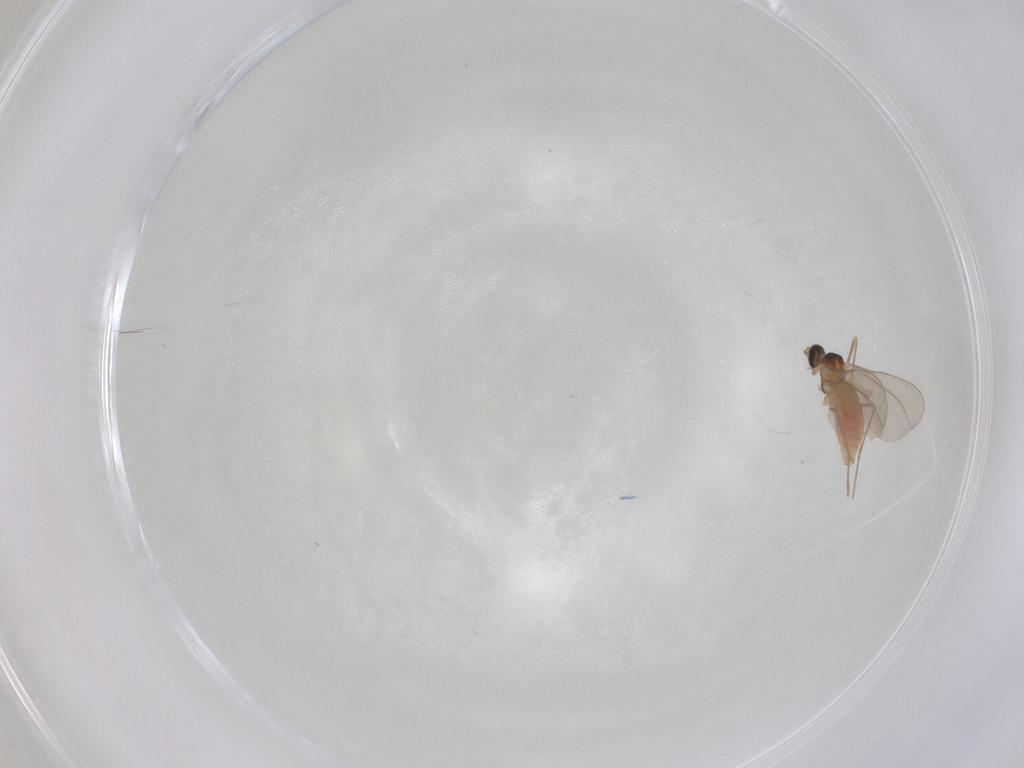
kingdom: Animalia
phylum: Arthropoda
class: Insecta
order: Diptera
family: Cecidomyiidae
